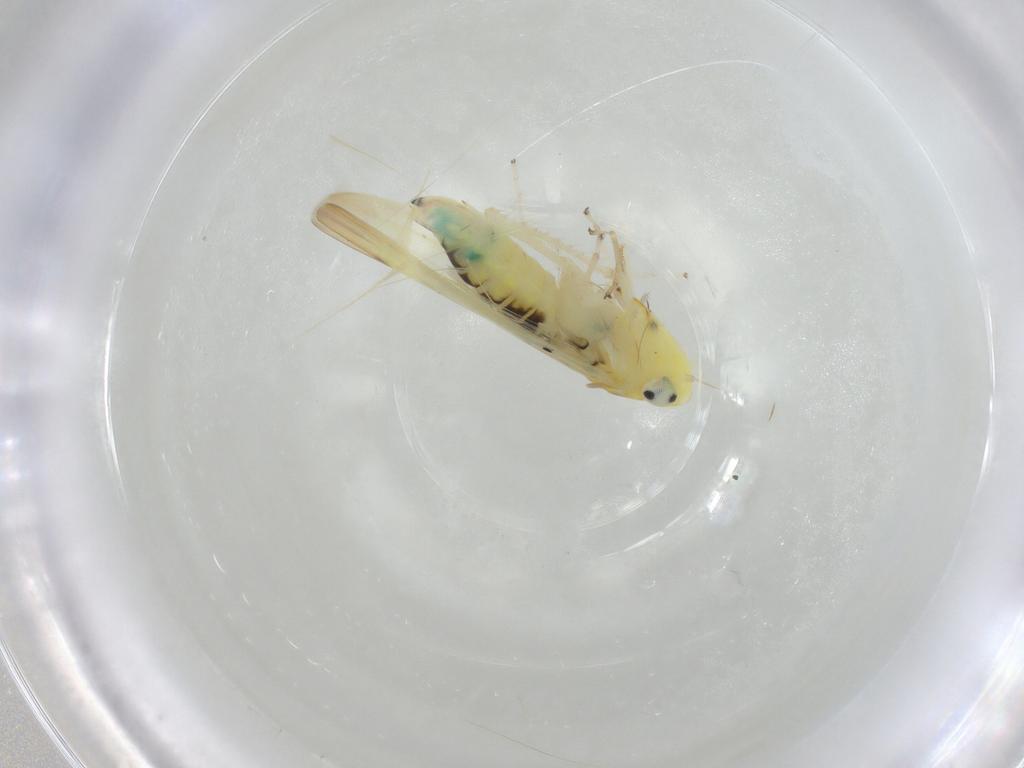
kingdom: Animalia
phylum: Arthropoda
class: Insecta
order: Hemiptera
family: Cicadellidae
